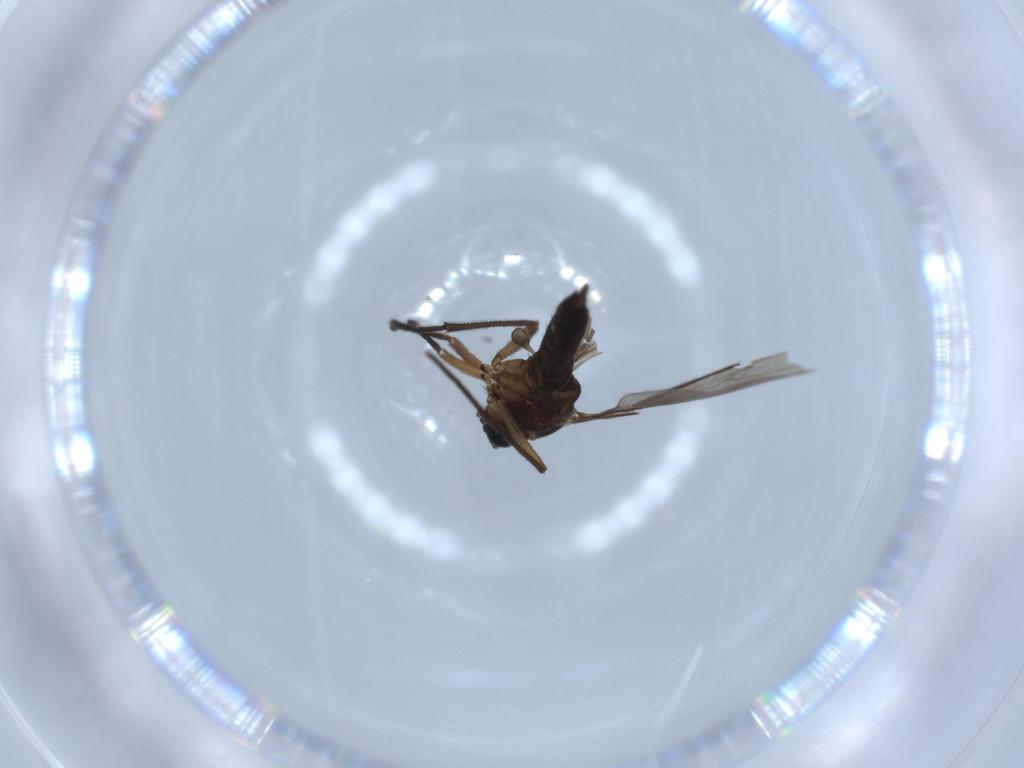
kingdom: Animalia
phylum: Arthropoda
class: Insecta
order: Diptera
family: Sciaridae
